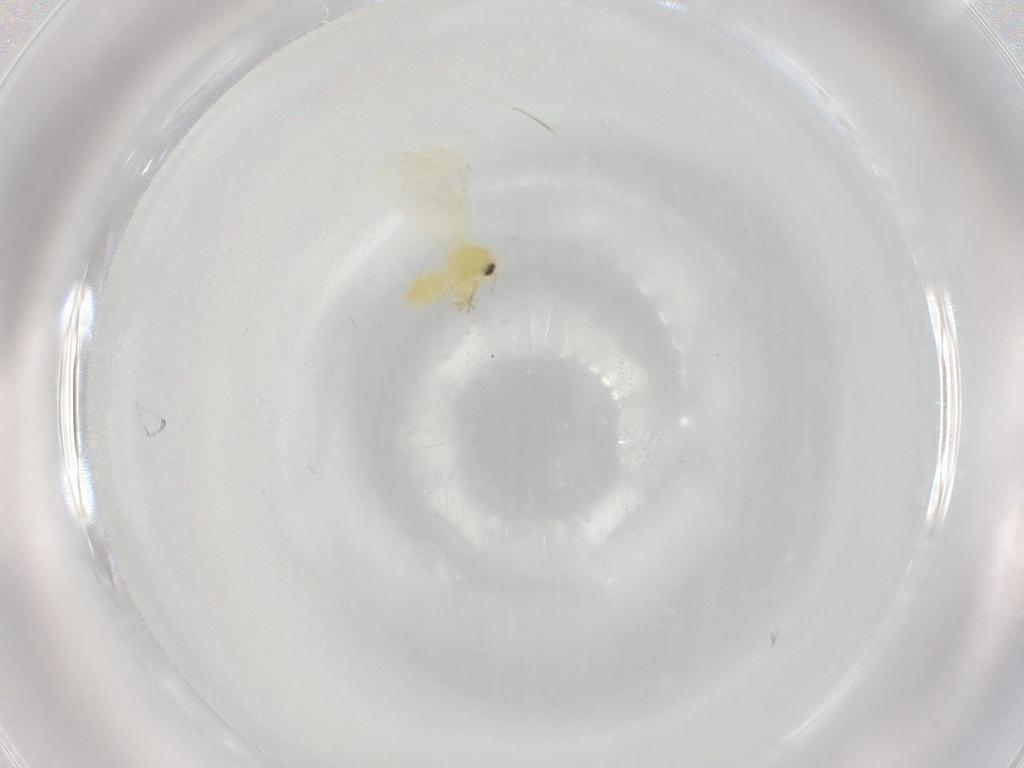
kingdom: Animalia
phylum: Arthropoda
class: Insecta
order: Hemiptera
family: Aleyrodidae
